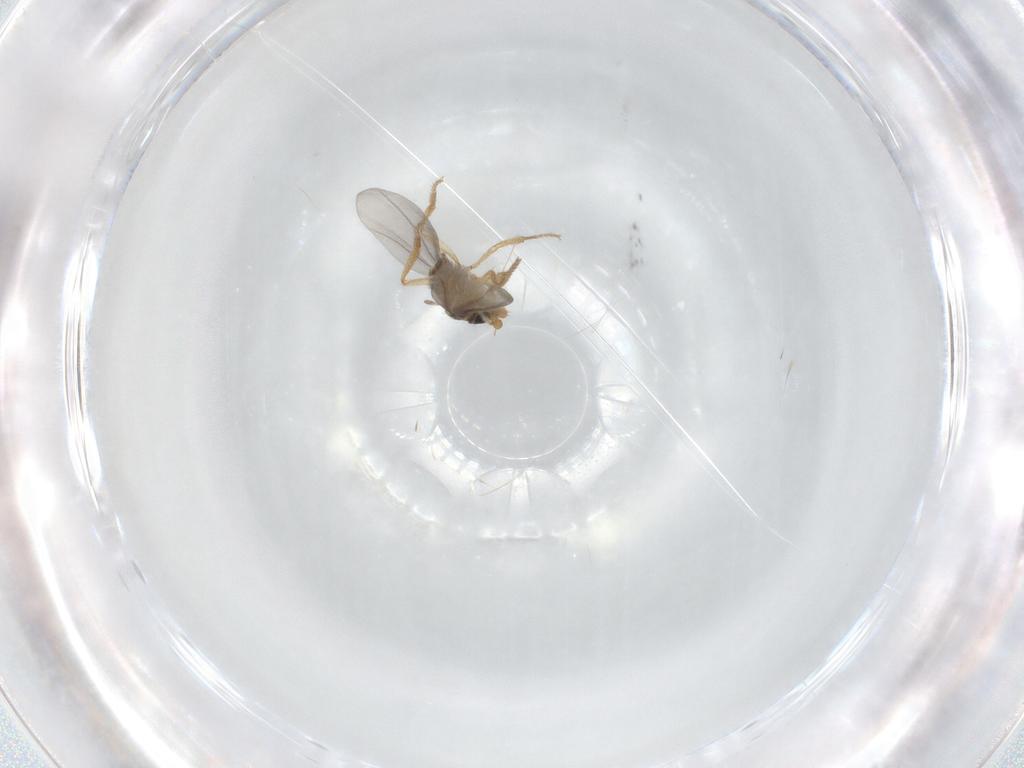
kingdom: Animalia
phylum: Arthropoda
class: Insecta
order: Diptera
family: Phoridae
